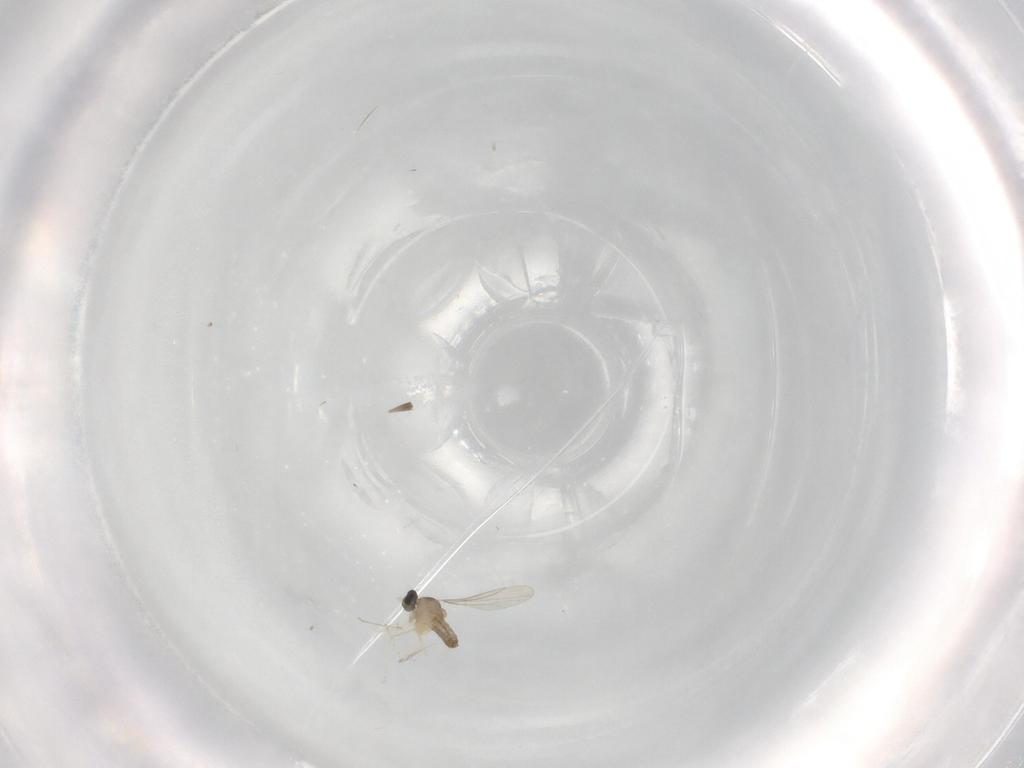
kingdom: Animalia
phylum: Arthropoda
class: Insecta
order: Diptera
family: Cecidomyiidae
